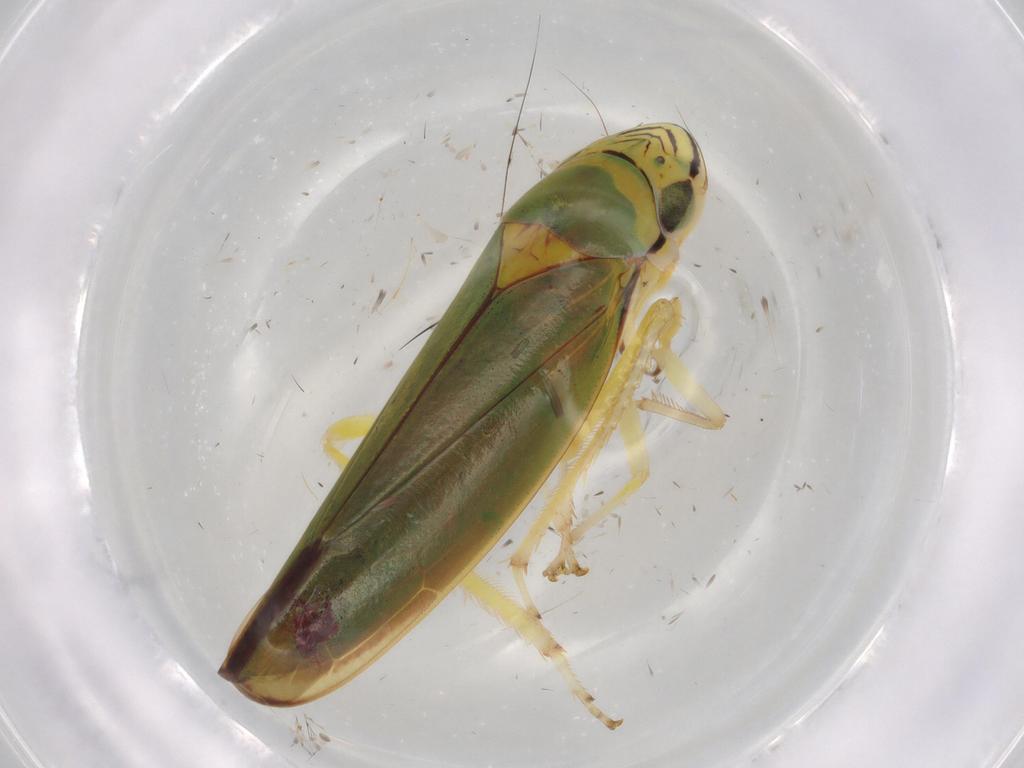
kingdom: Animalia
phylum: Arthropoda
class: Insecta
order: Hemiptera
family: Cicadellidae
